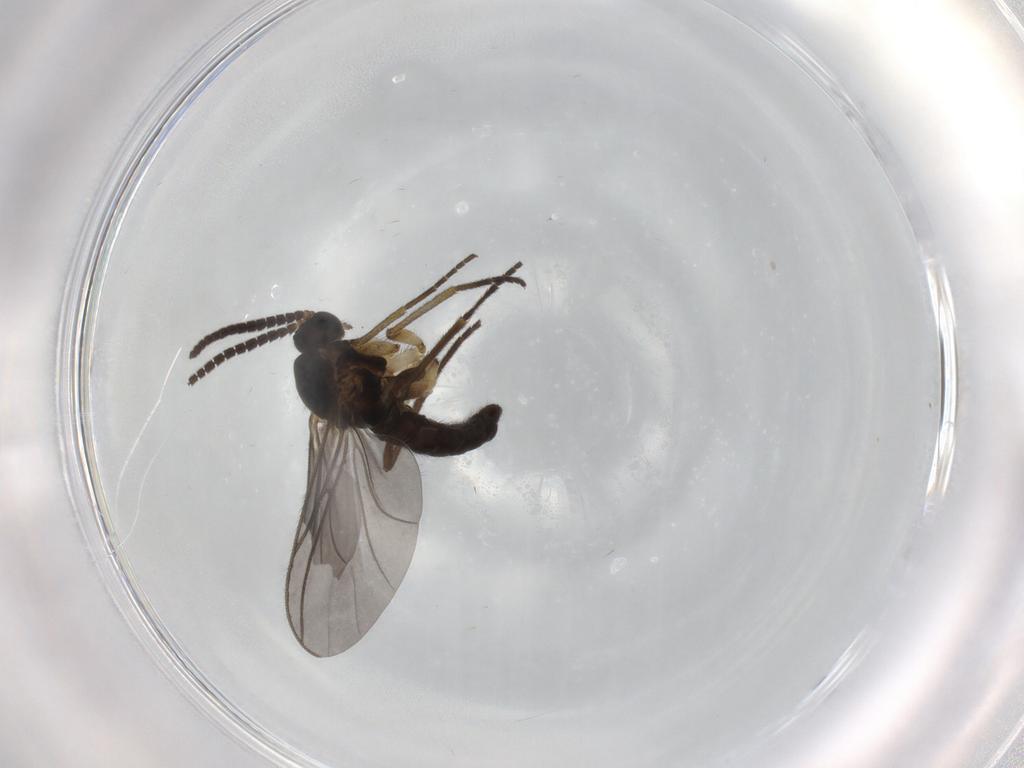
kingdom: Animalia
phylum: Arthropoda
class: Insecta
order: Diptera
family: Sciaridae
